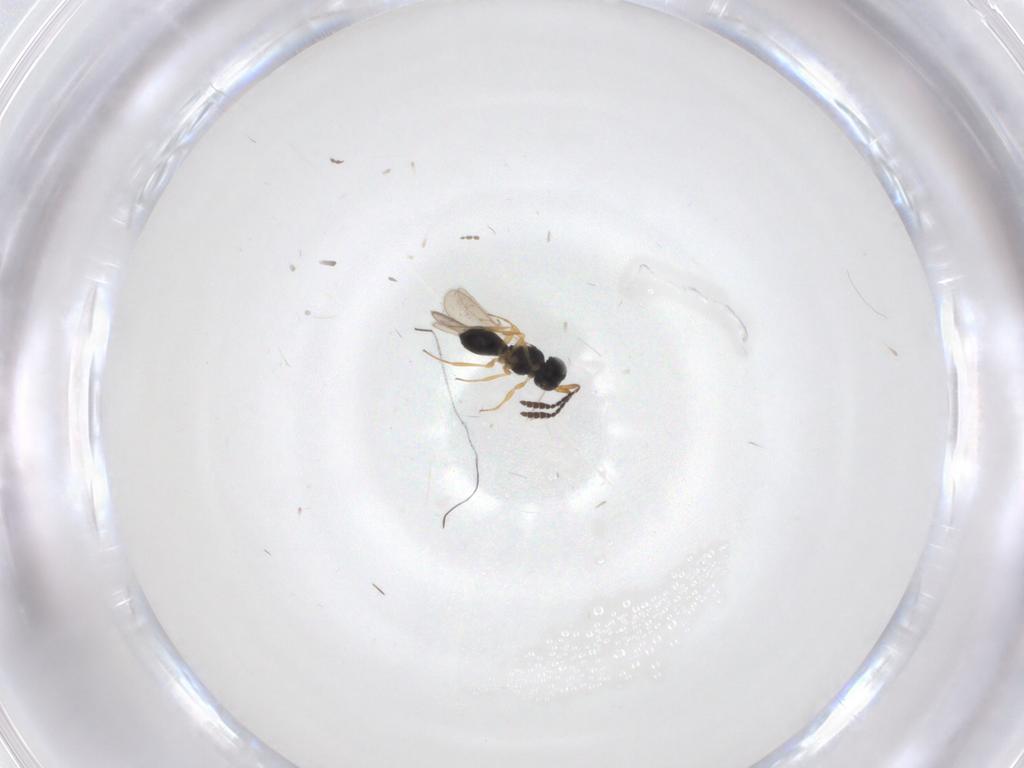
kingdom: Animalia
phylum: Arthropoda
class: Insecta
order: Hymenoptera
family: Scelionidae
